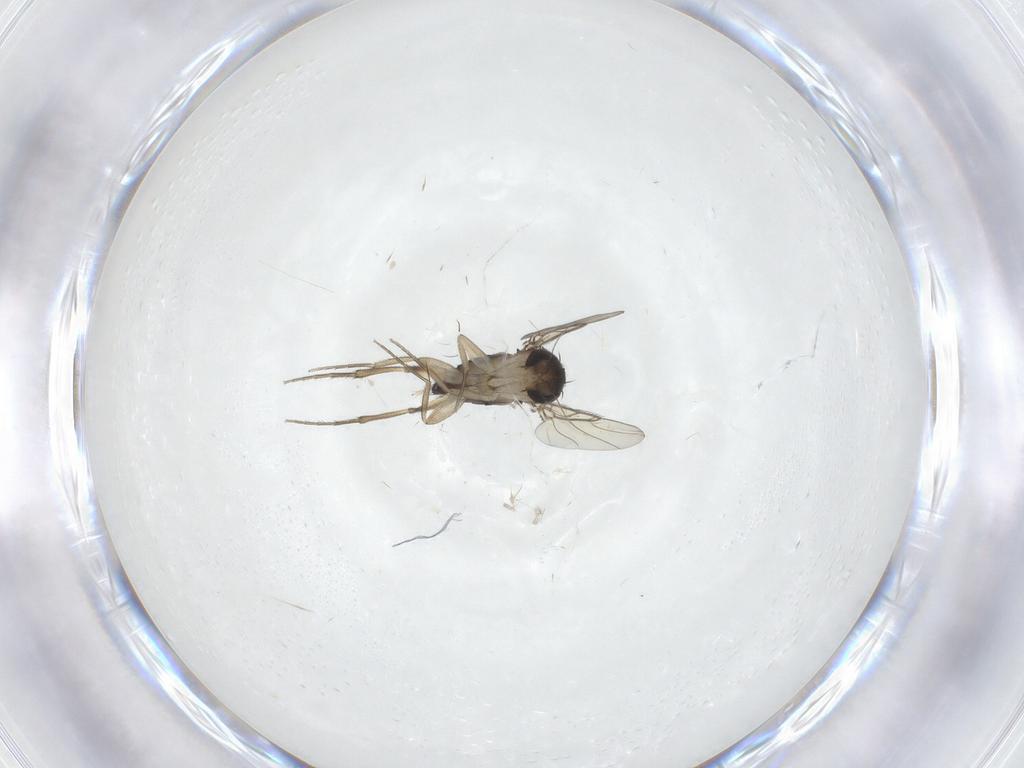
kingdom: Animalia
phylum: Arthropoda
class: Insecta
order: Diptera
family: Phoridae
